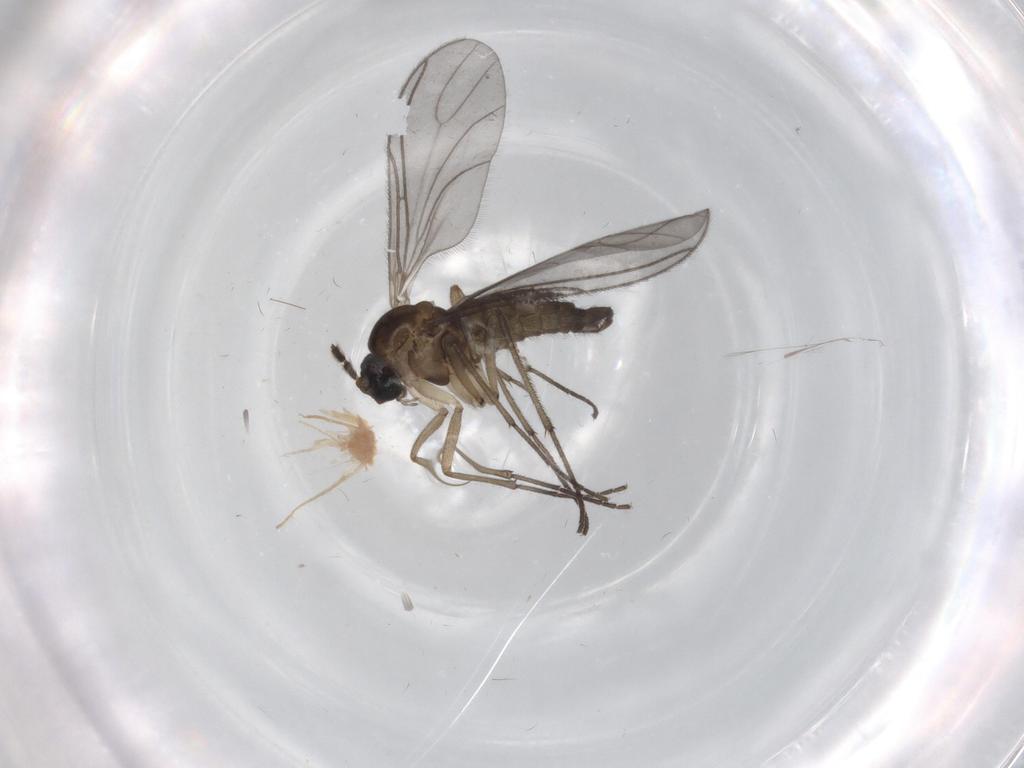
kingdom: Animalia
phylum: Arthropoda
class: Insecta
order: Diptera
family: Sciaridae
